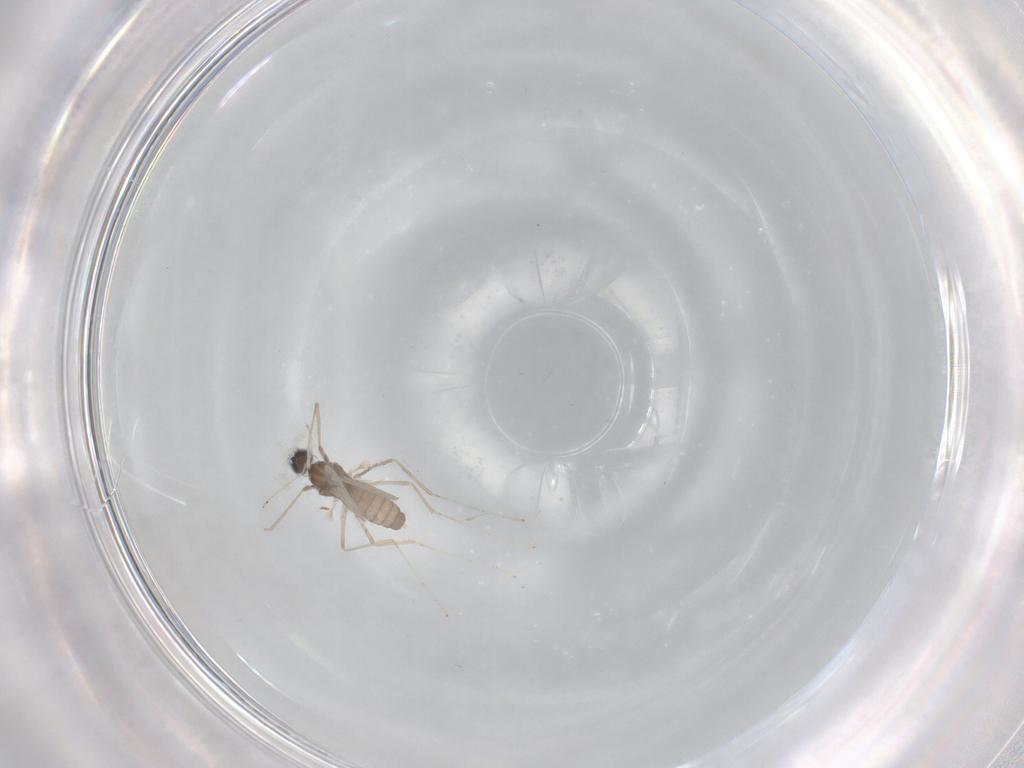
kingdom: Animalia
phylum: Arthropoda
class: Insecta
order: Diptera
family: Cecidomyiidae
